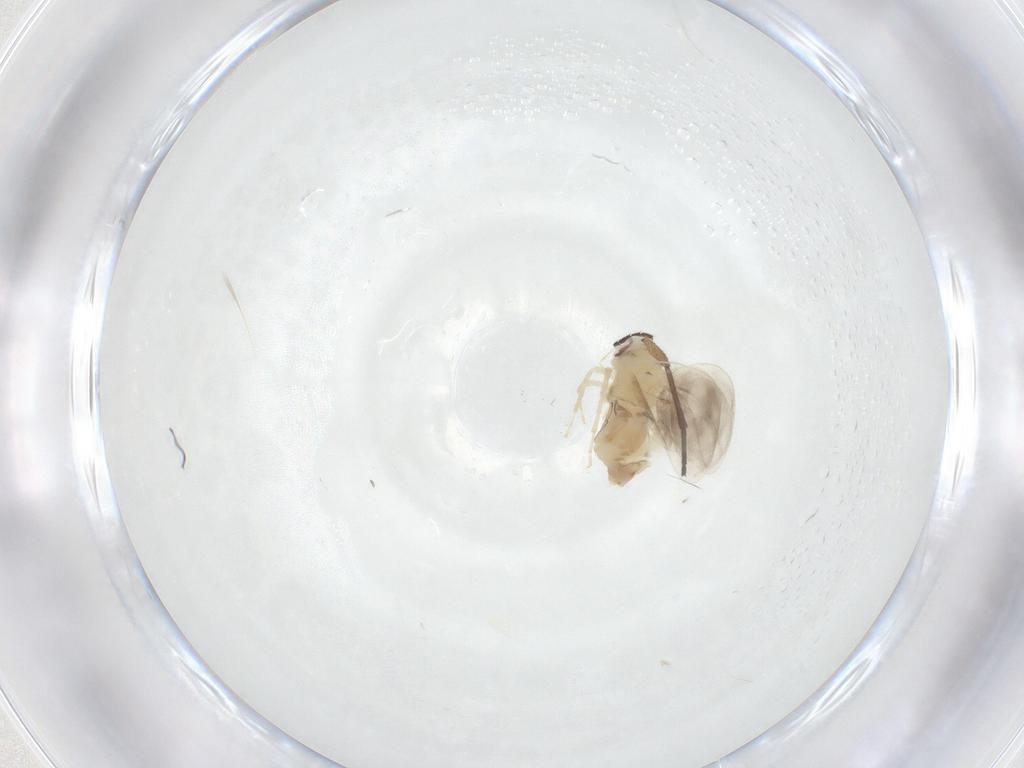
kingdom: Animalia
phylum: Arthropoda
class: Insecta
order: Hemiptera
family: Aleyrodidae
